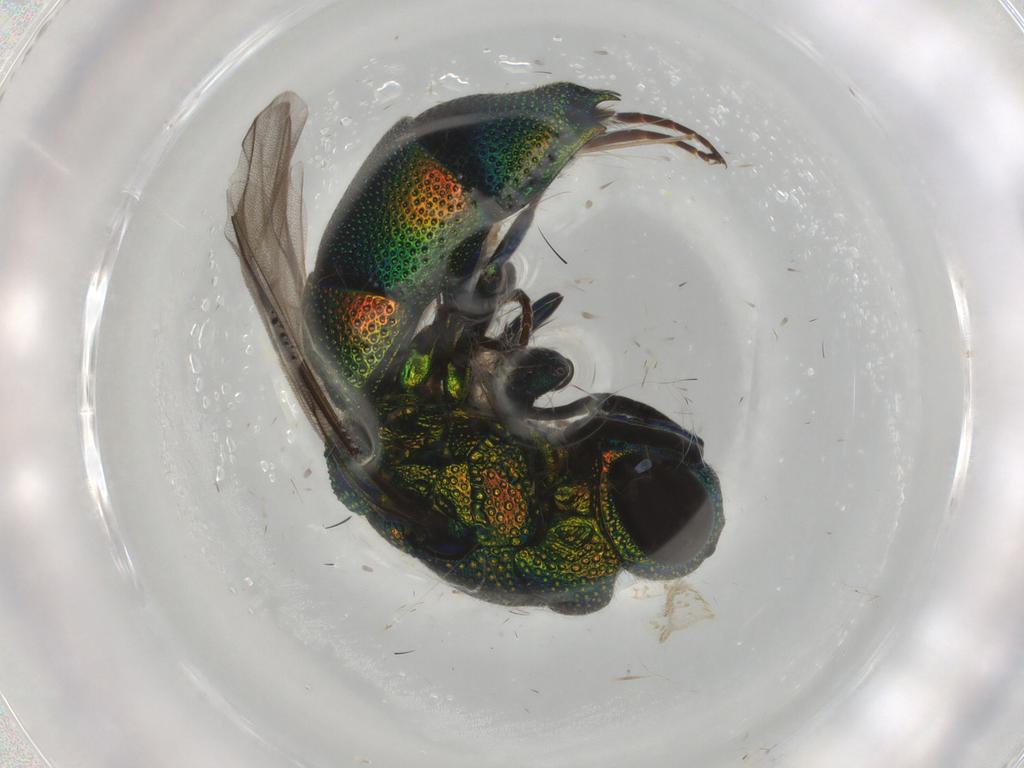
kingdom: Animalia
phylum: Arthropoda
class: Insecta
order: Hymenoptera
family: Chrysididae
